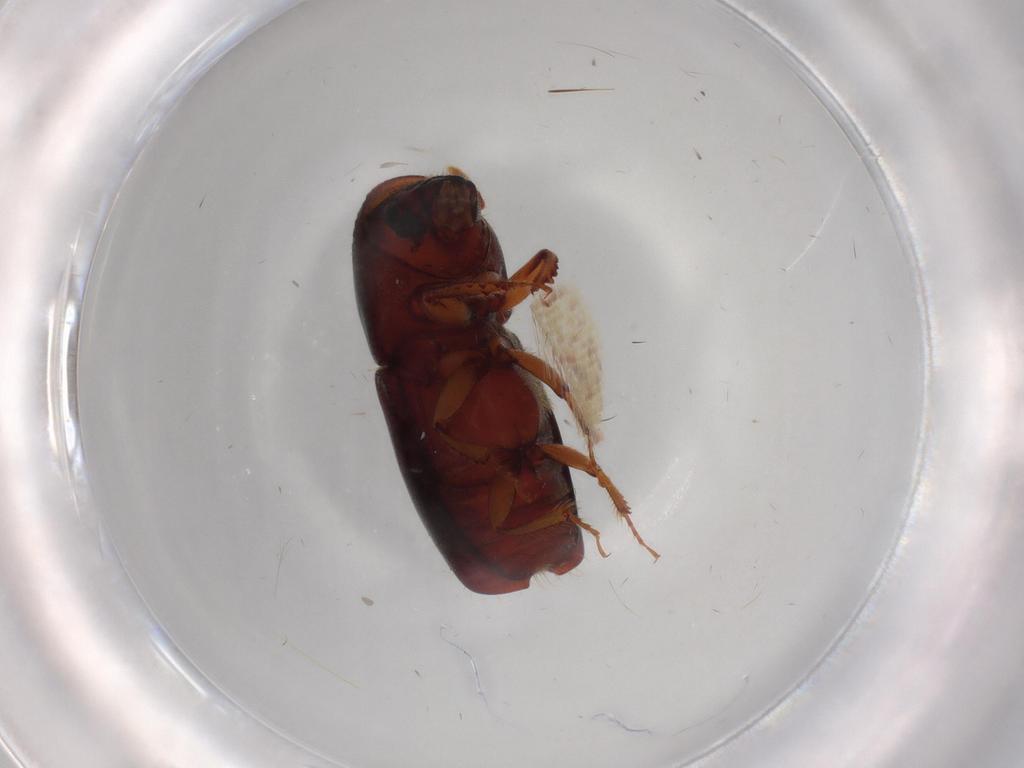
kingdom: Animalia
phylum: Arthropoda
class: Insecta
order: Coleoptera
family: Curculionidae
